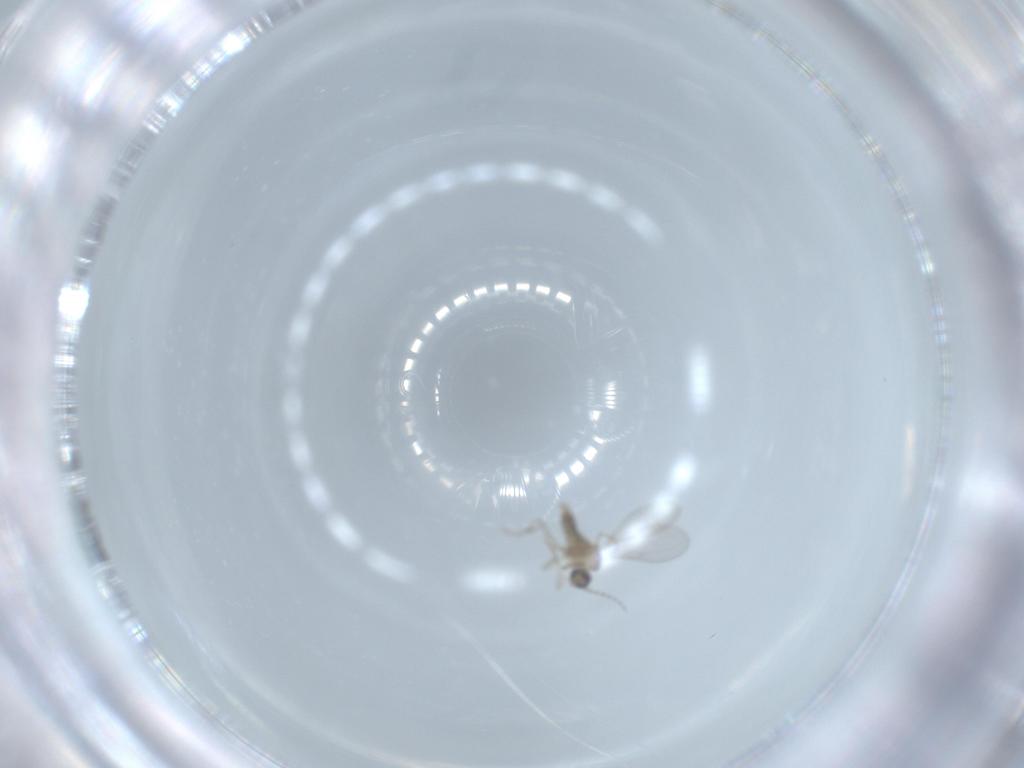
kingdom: Animalia
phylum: Arthropoda
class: Insecta
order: Diptera
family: Cecidomyiidae
